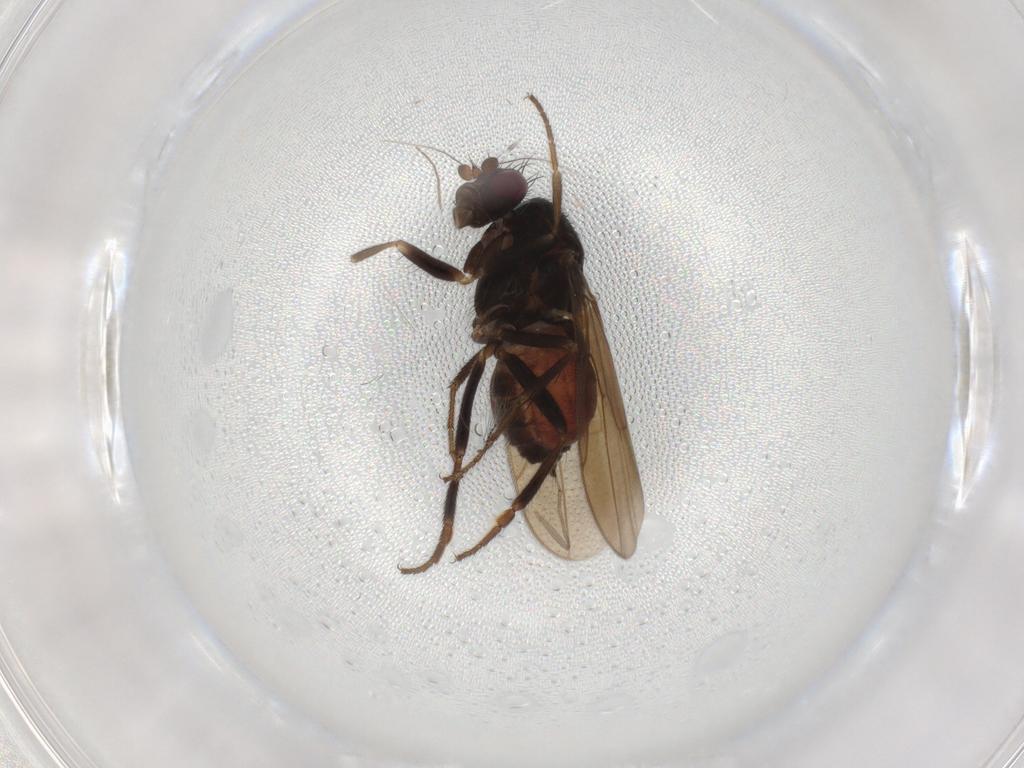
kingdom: Animalia
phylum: Arthropoda
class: Insecta
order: Diptera
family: Sphaeroceridae
